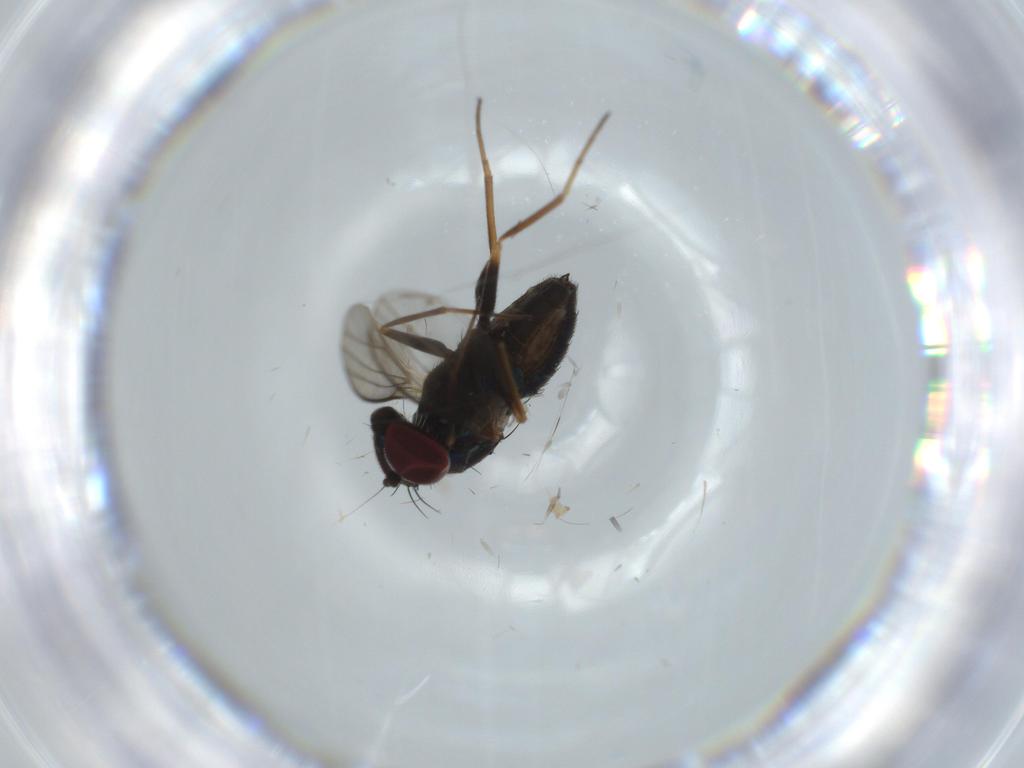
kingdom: Animalia
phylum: Arthropoda
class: Insecta
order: Diptera
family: Dolichopodidae
